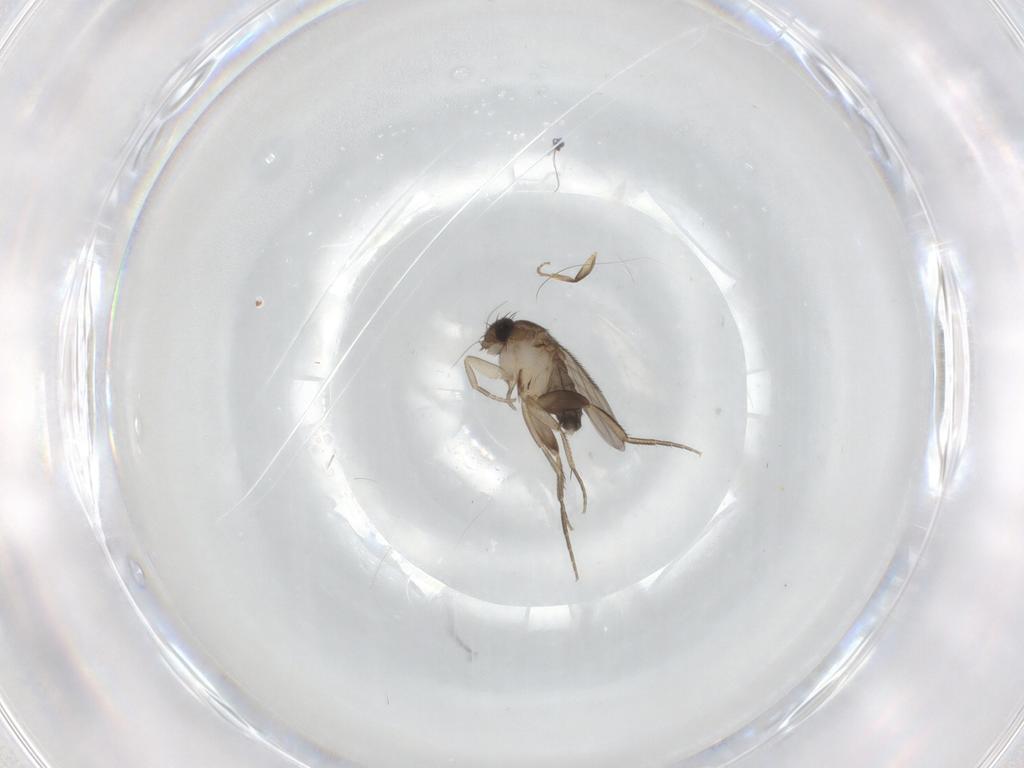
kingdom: Animalia
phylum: Arthropoda
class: Insecta
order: Diptera
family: Phoridae
